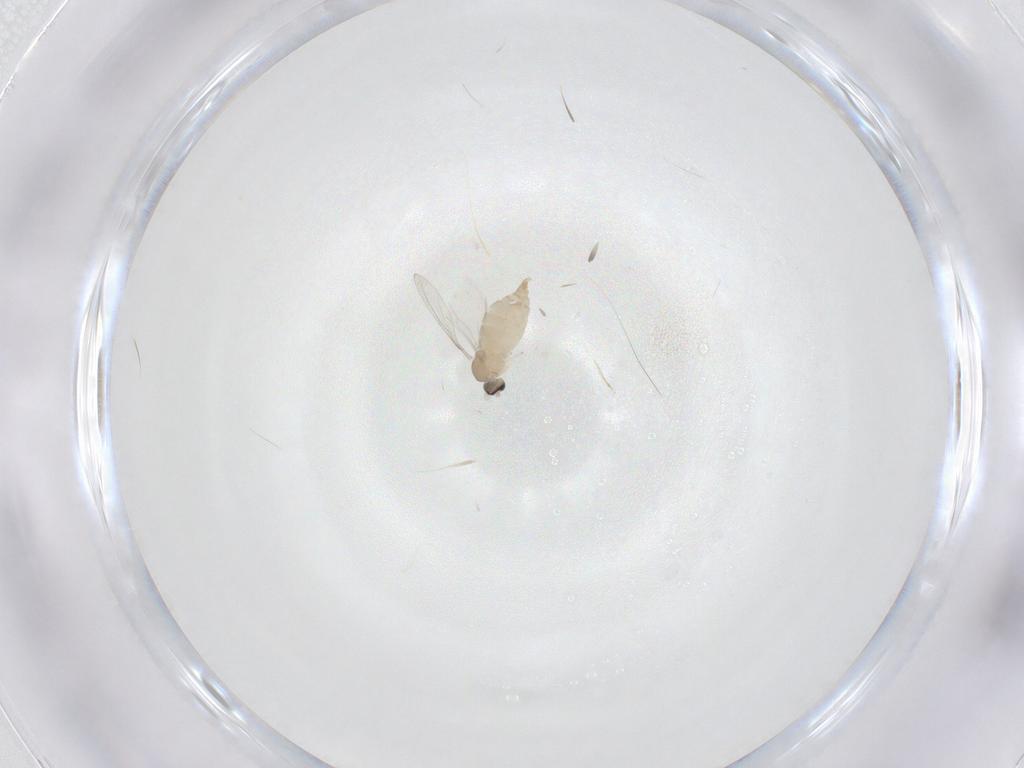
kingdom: Animalia
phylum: Arthropoda
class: Insecta
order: Diptera
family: Cecidomyiidae
